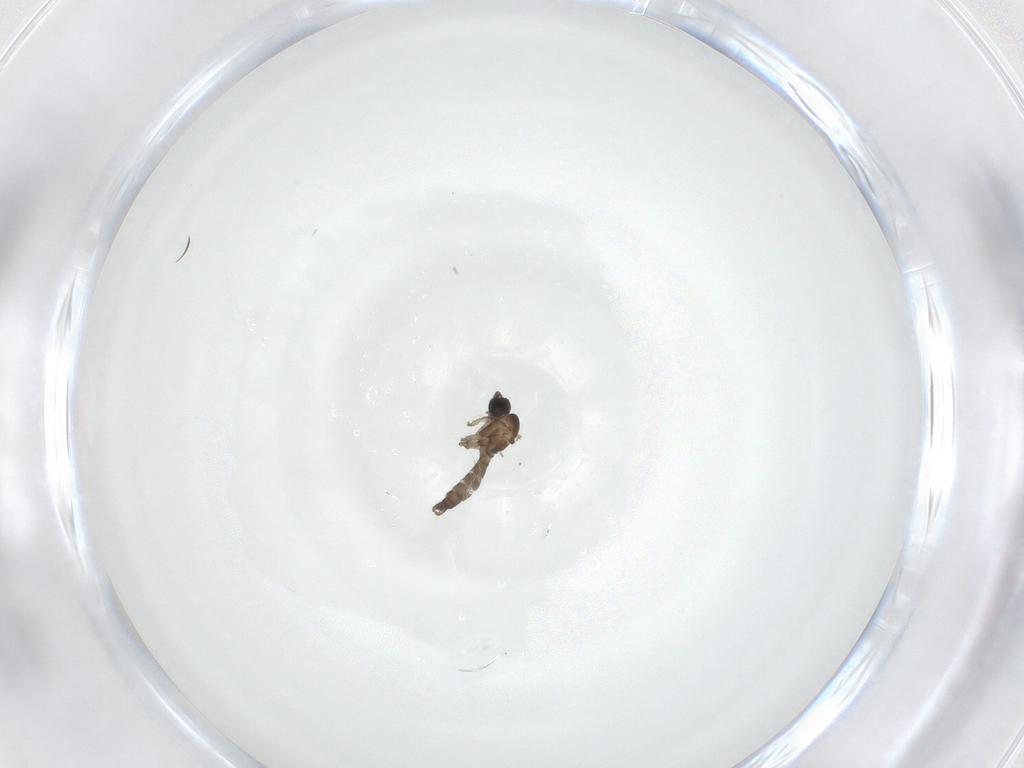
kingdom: Animalia
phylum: Arthropoda
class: Insecta
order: Diptera
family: Sciaridae
